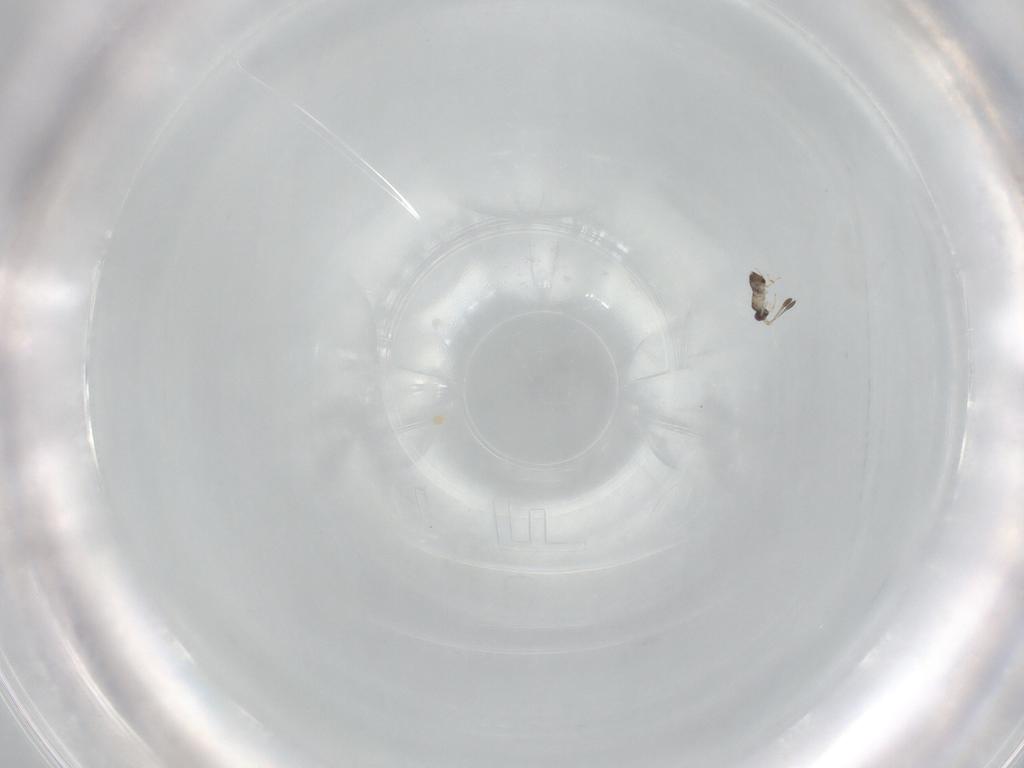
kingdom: Animalia
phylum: Arthropoda
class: Insecta
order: Hymenoptera
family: Mymaridae
